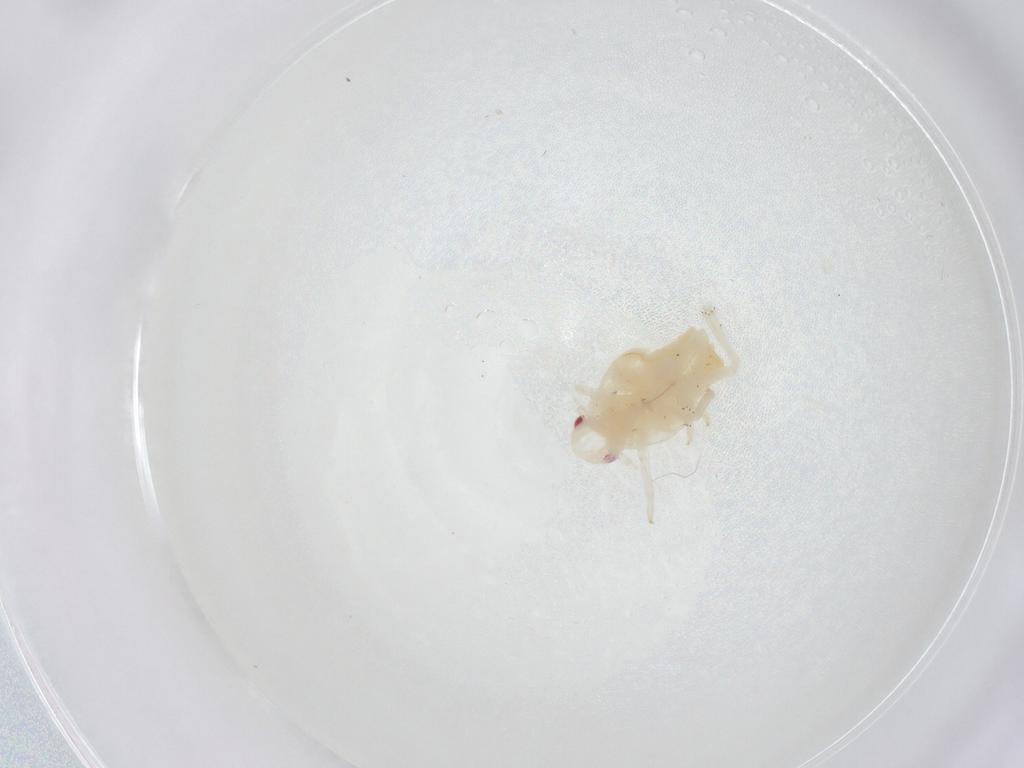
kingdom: Animalia
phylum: Arthropoda
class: Insecta
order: Hemiptera
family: Flatidae
